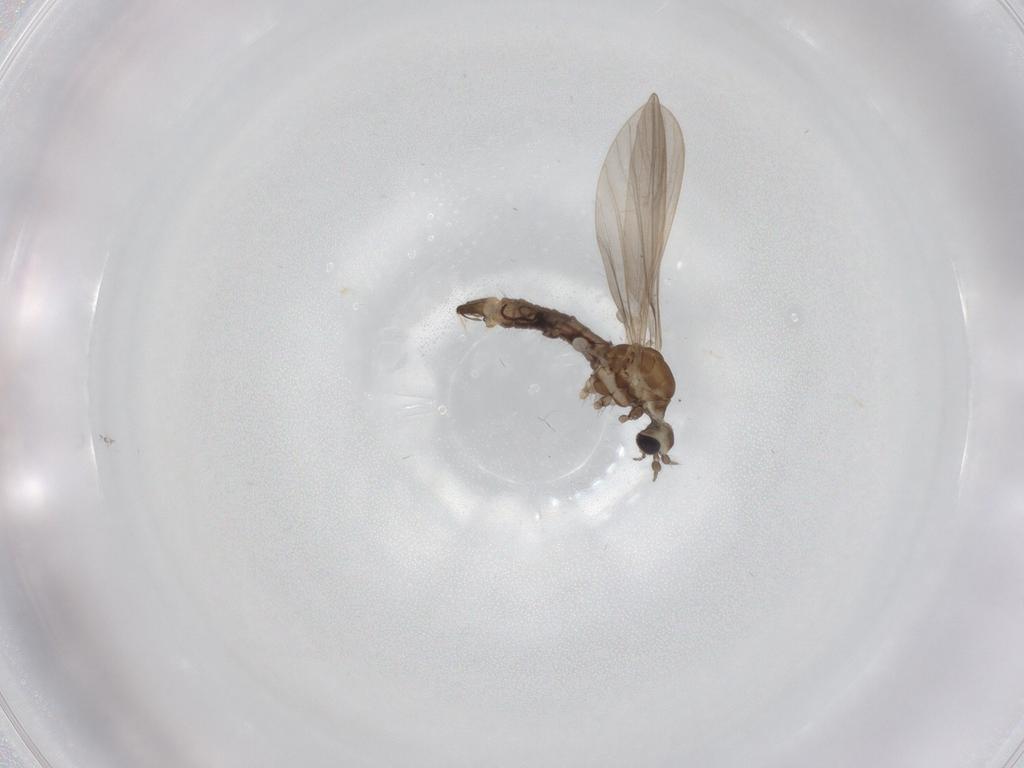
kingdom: Animalia
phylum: Arthropoda
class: Insecta
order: Diptera
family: Limoniidae
